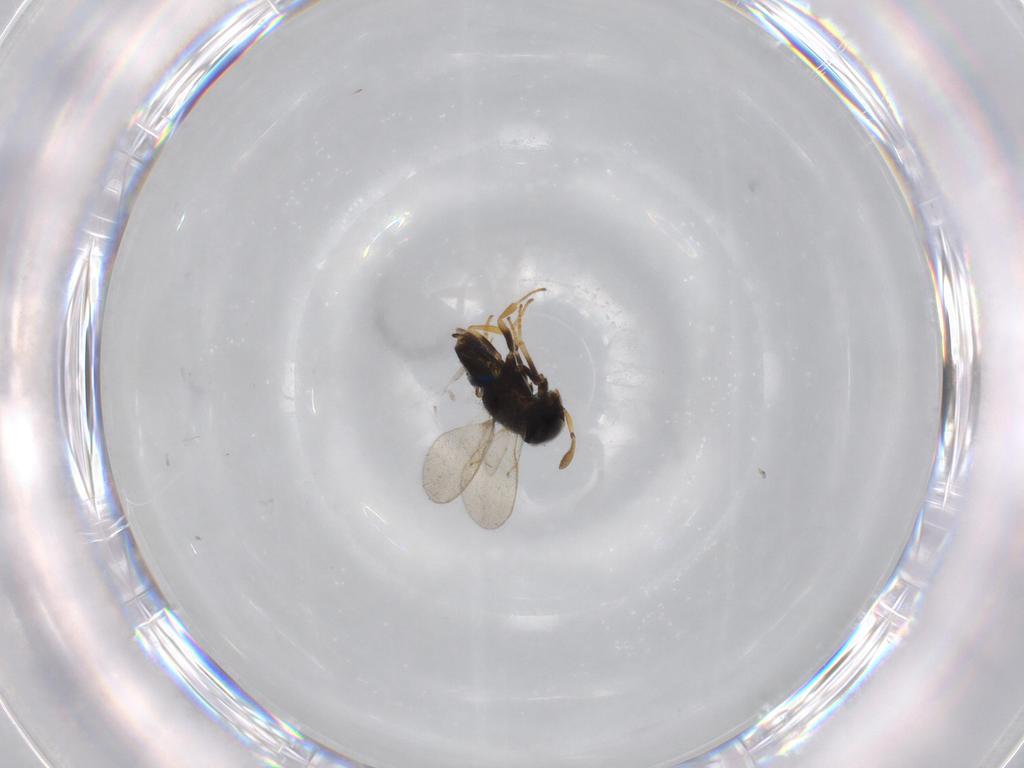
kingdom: Animalia
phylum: Arthropoda
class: Insecta
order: Hymenoptera
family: Encyrtidae
